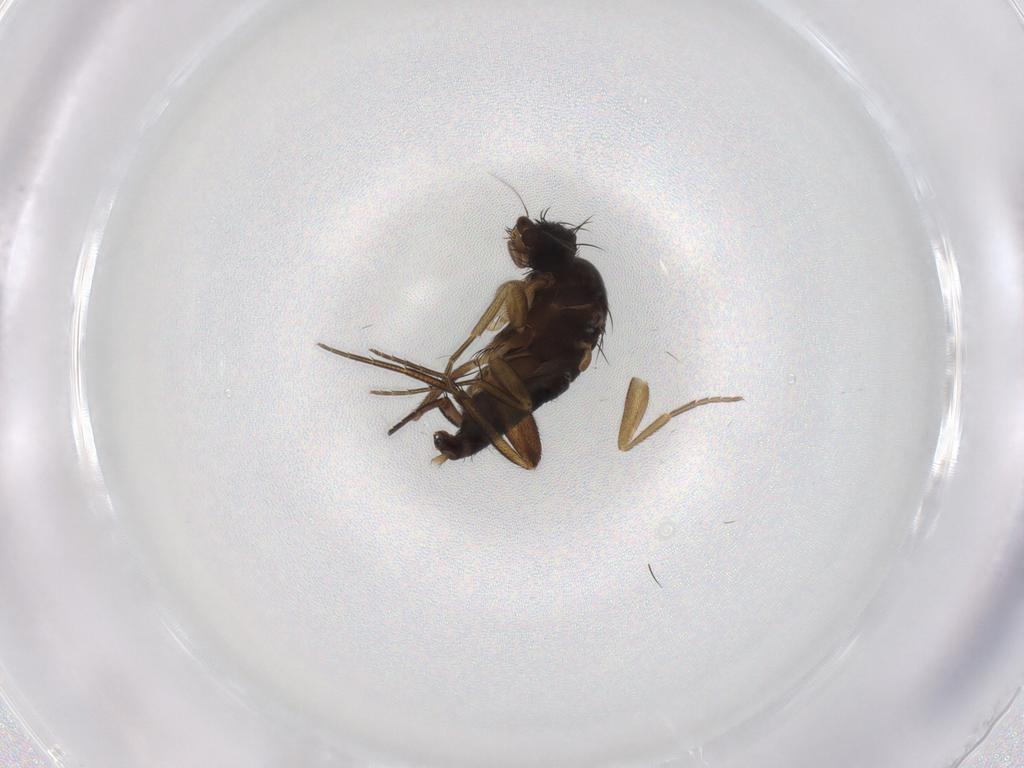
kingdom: Animalia
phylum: Arthropoda
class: Insecta
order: Diptera
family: Phoridae
